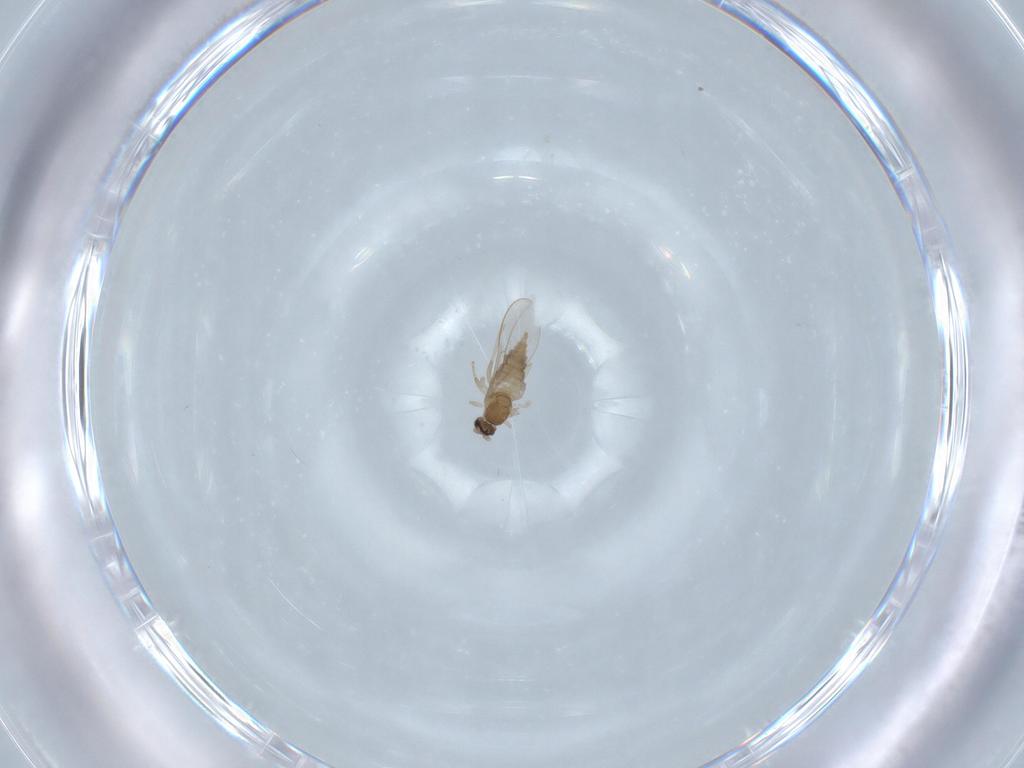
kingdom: Animalia
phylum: Arthropoda
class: Insecta
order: Diptera
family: Cecidomyiidae
